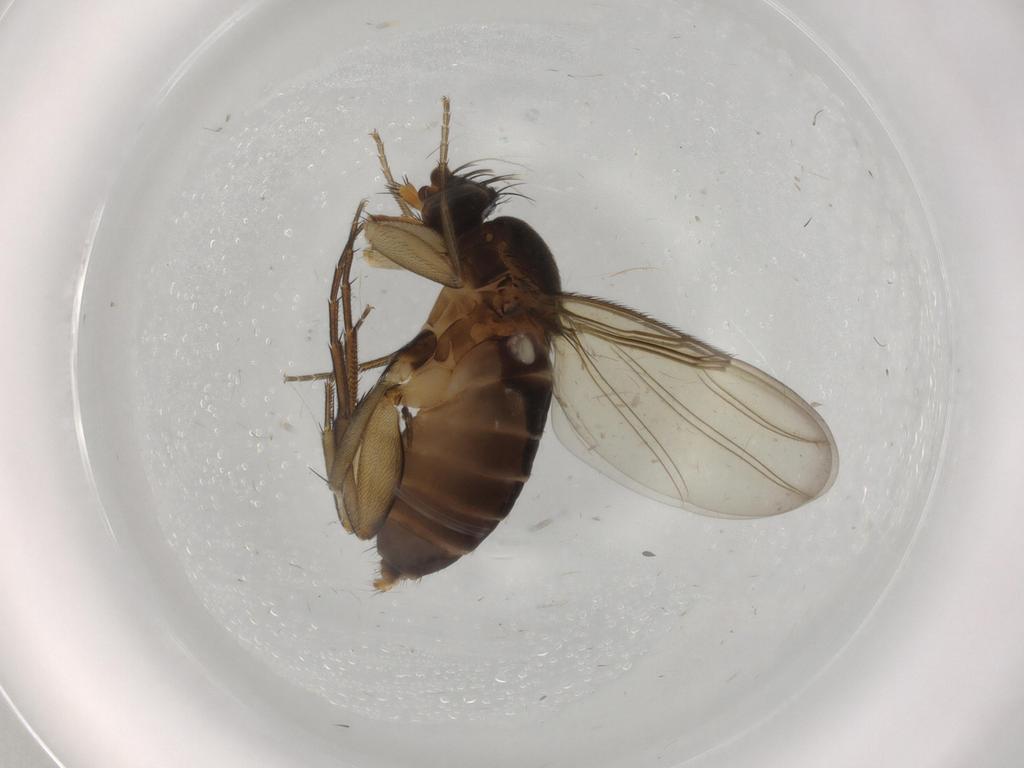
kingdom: Animalia
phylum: Arthropoda
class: Insecta
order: Diptera
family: Phoridae
